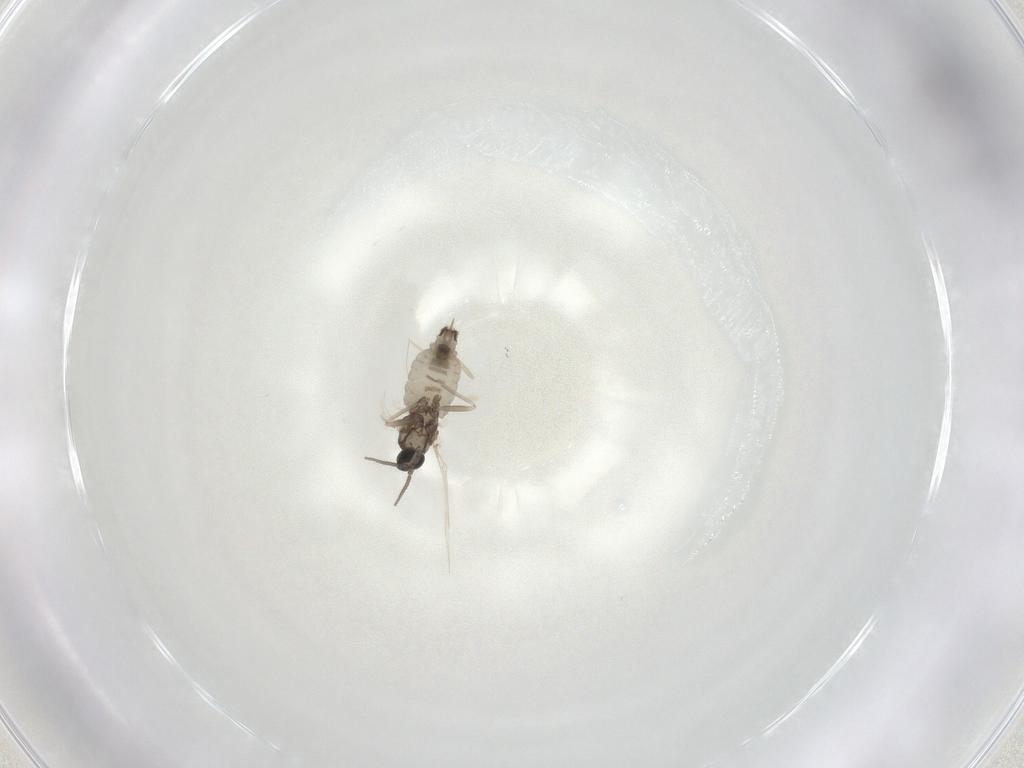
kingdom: Animalia
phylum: Arthropoda
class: Insecta
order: Diptera
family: Cecidomyiidae
